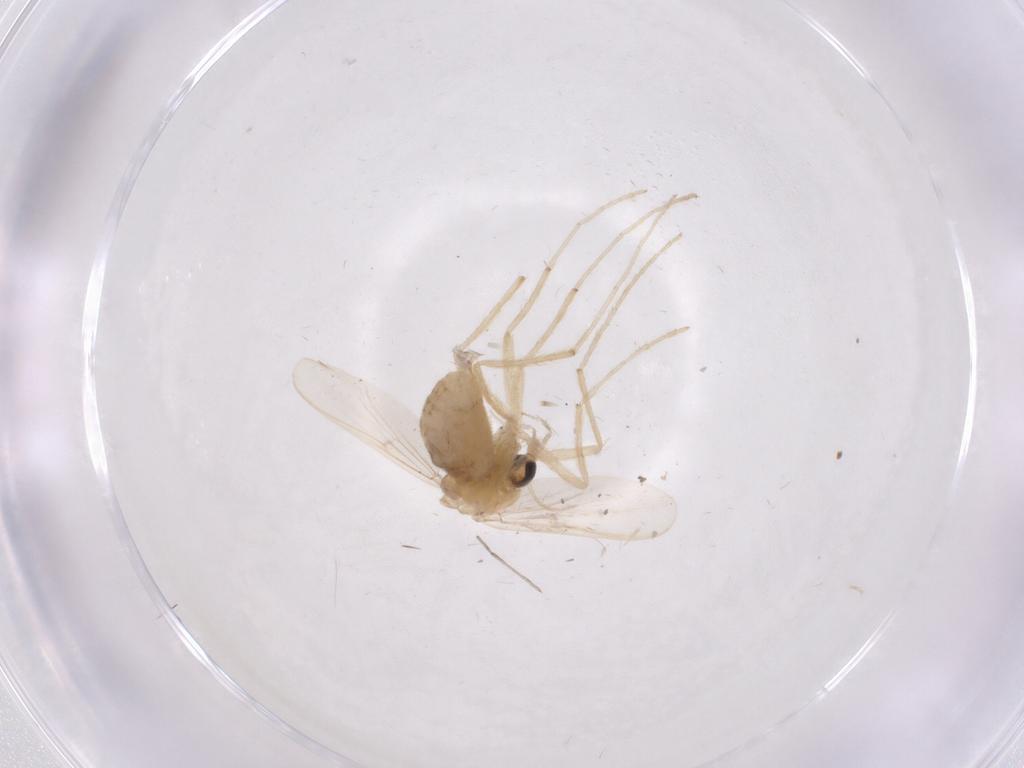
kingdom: Animalia
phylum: Arthropoda
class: Insecta
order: Diptera
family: Chironomidae
